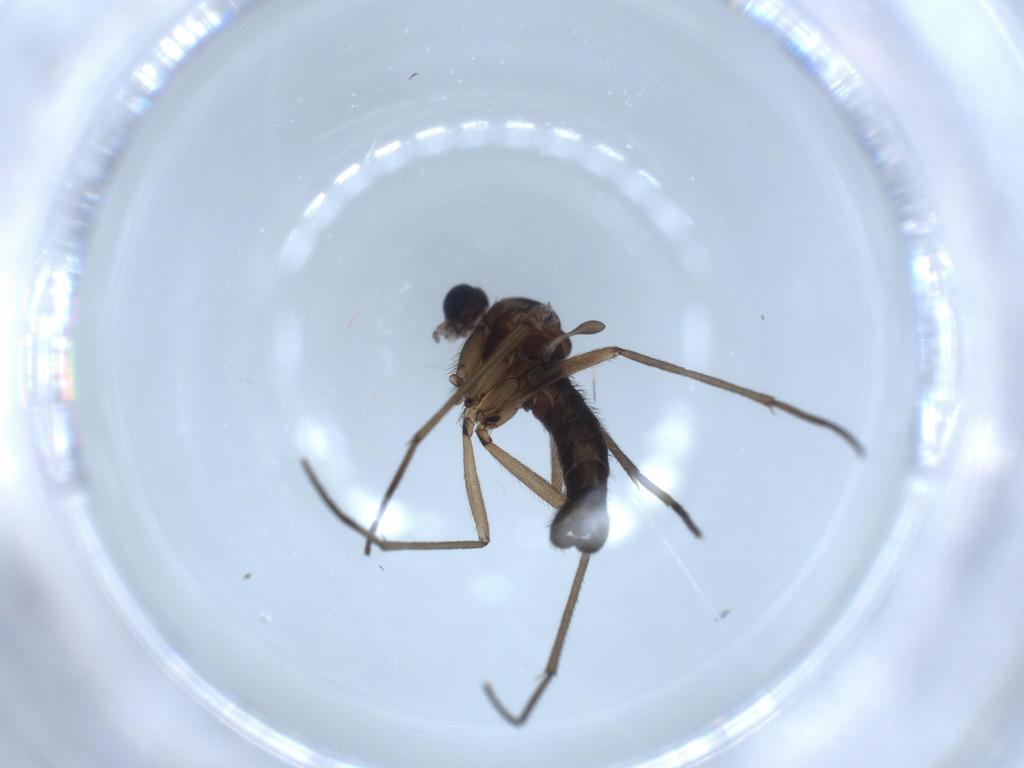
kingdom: Animalia
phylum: Arthropoda
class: Insecta
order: Diptera
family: Sciaridae
